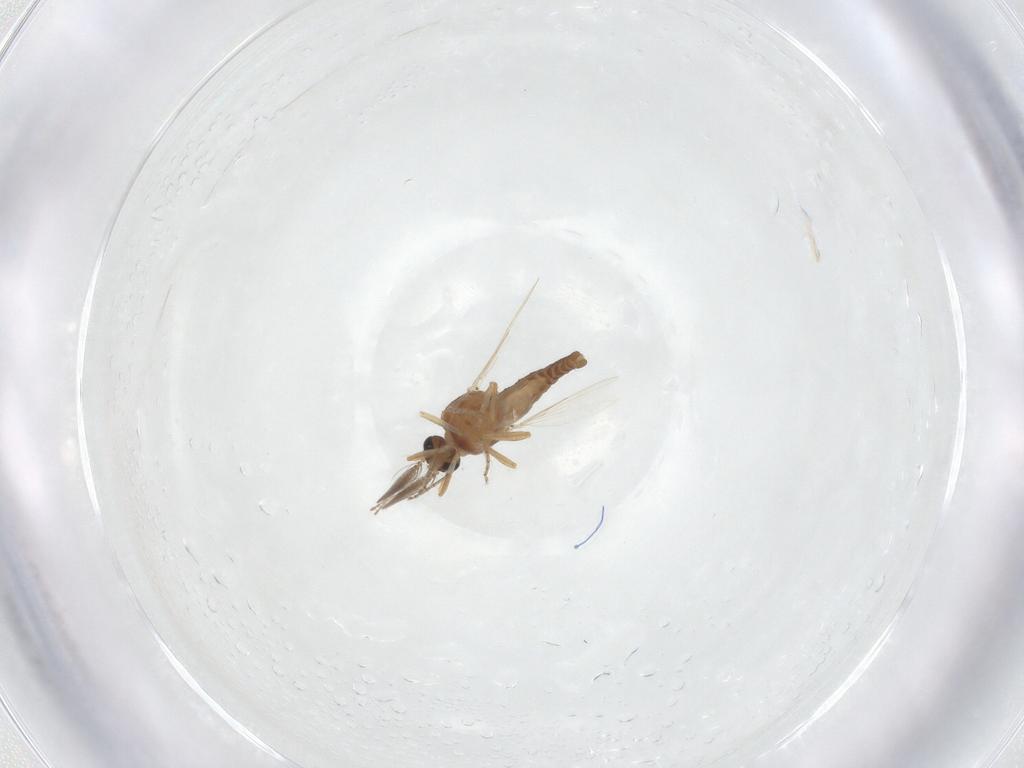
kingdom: Animalia
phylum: Arthropoda
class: Insecta
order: Diptera
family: Ceratopogonidae
